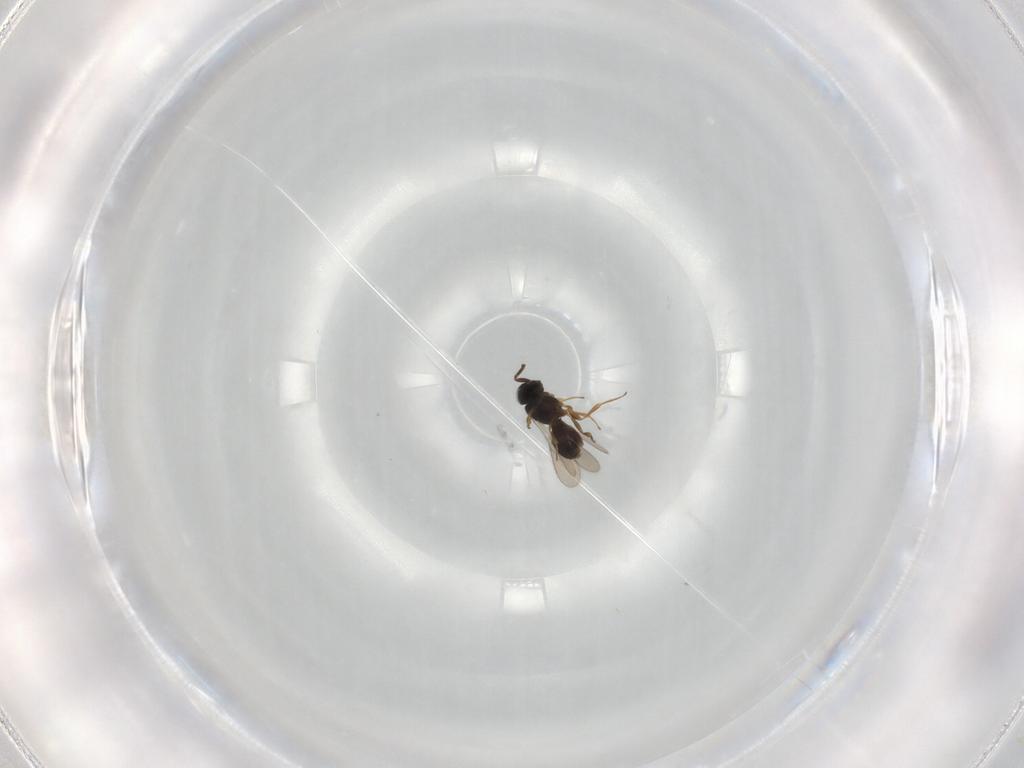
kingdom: Animalia
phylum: Arthropoda
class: Insecta
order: Hymenoptera
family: Scelionidae
